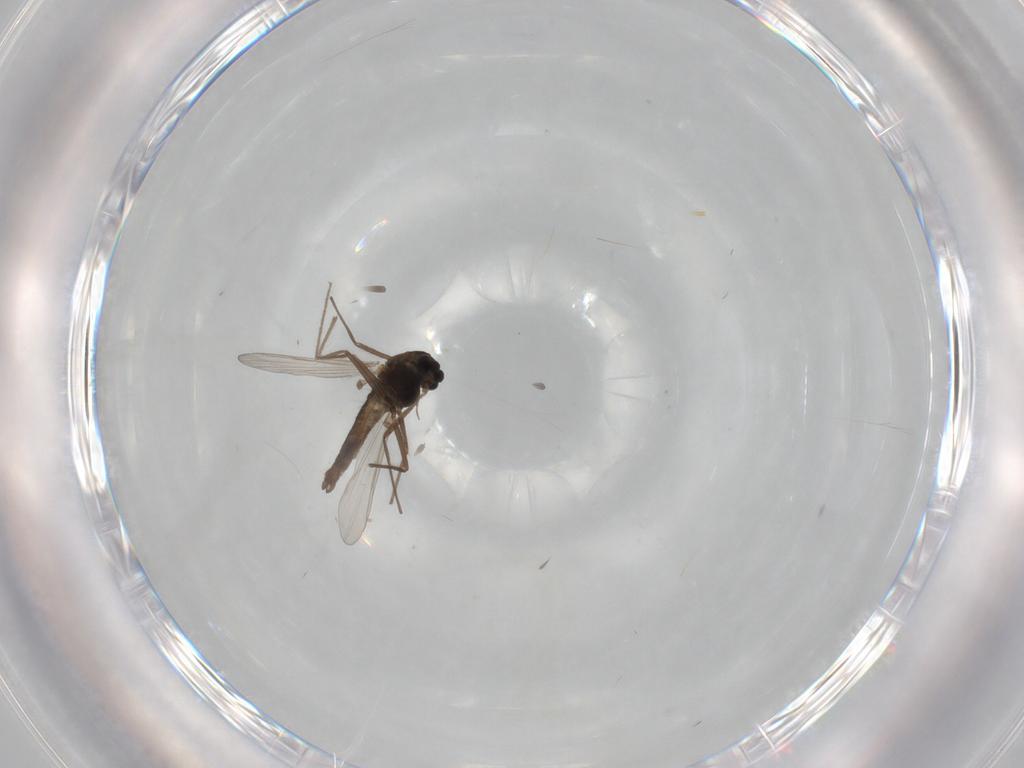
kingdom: Animalia
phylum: Arthropoda
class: Insecta
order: Diptera
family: Chironomidae
